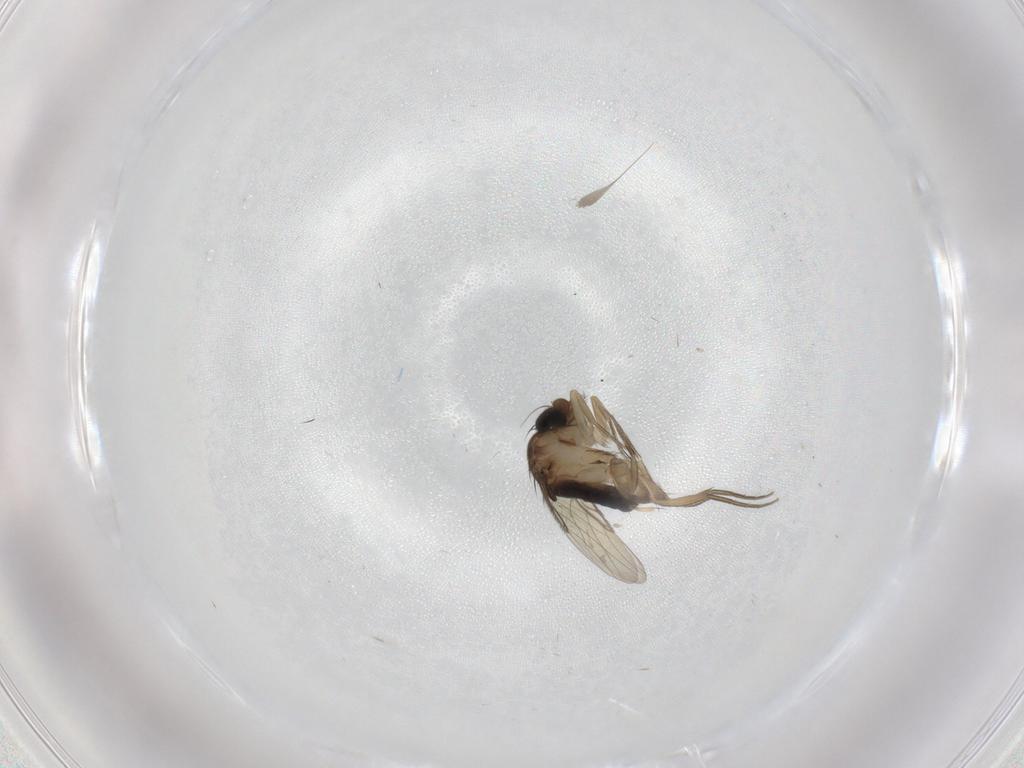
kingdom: Animalia
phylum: Arthropoda
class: Insecta
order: Diptera
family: Phoridae
